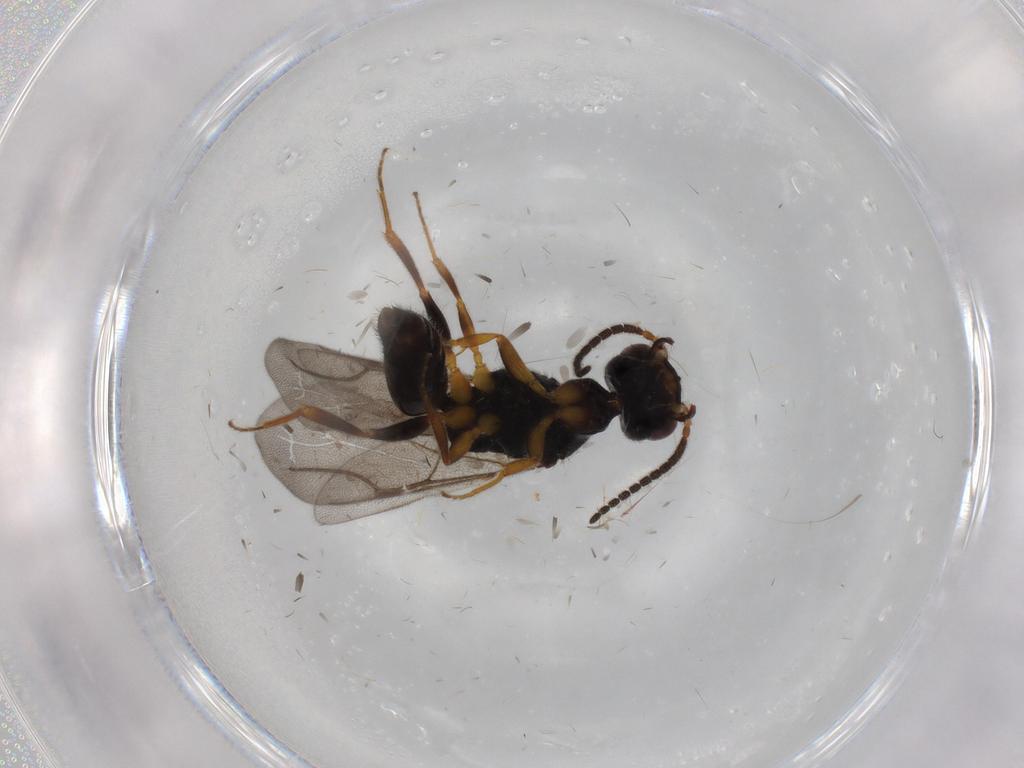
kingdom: Animalia
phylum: Arthropoda
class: Insecta
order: Hymenoptera
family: Bethylidae
